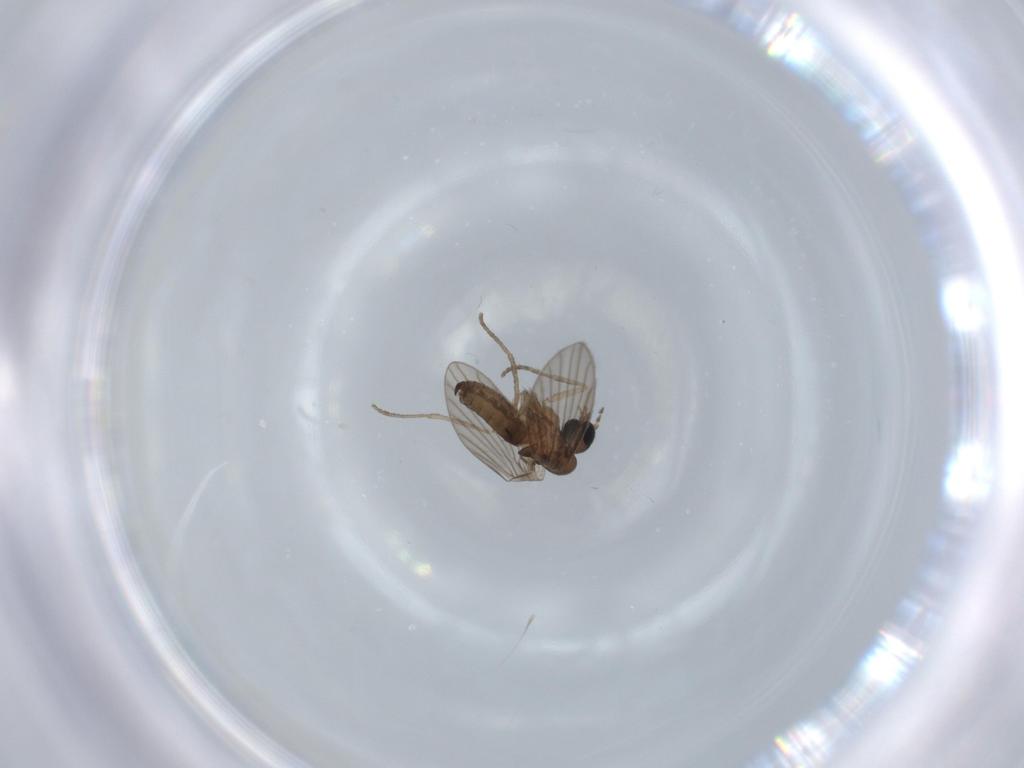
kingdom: Animalia
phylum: Arthropoda
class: Insecta
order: Diptera
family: Psychodidae
